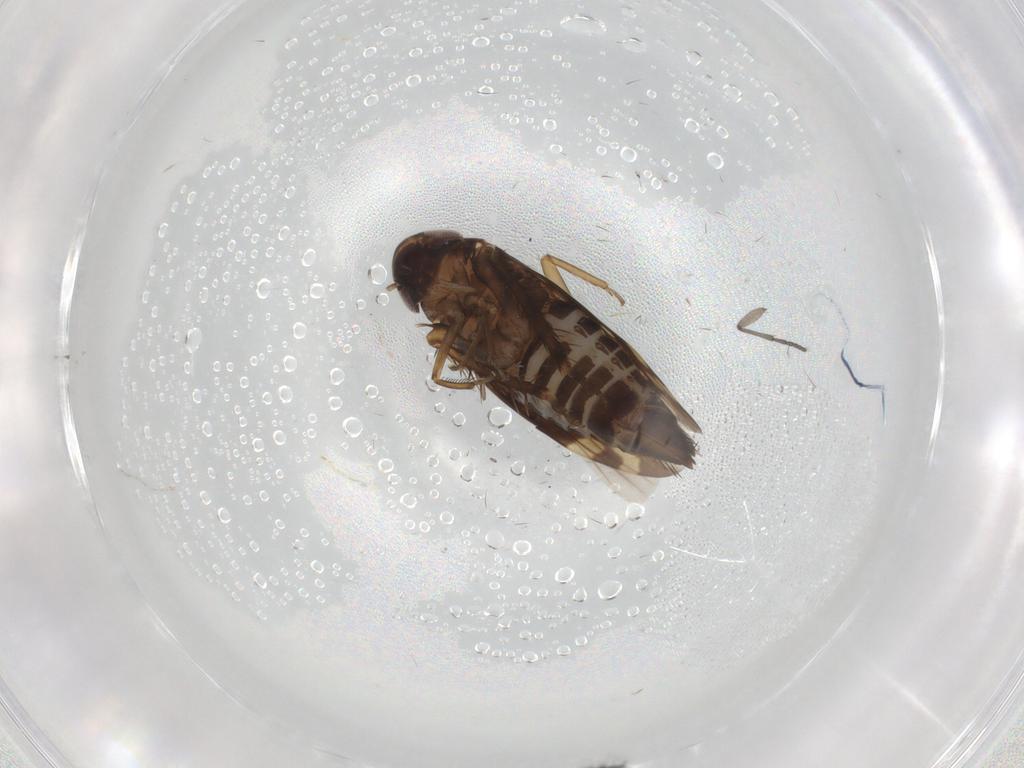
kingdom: Animalia
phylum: Arthropoda
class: Insecta
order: Hemiptera
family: Cicadellidae
